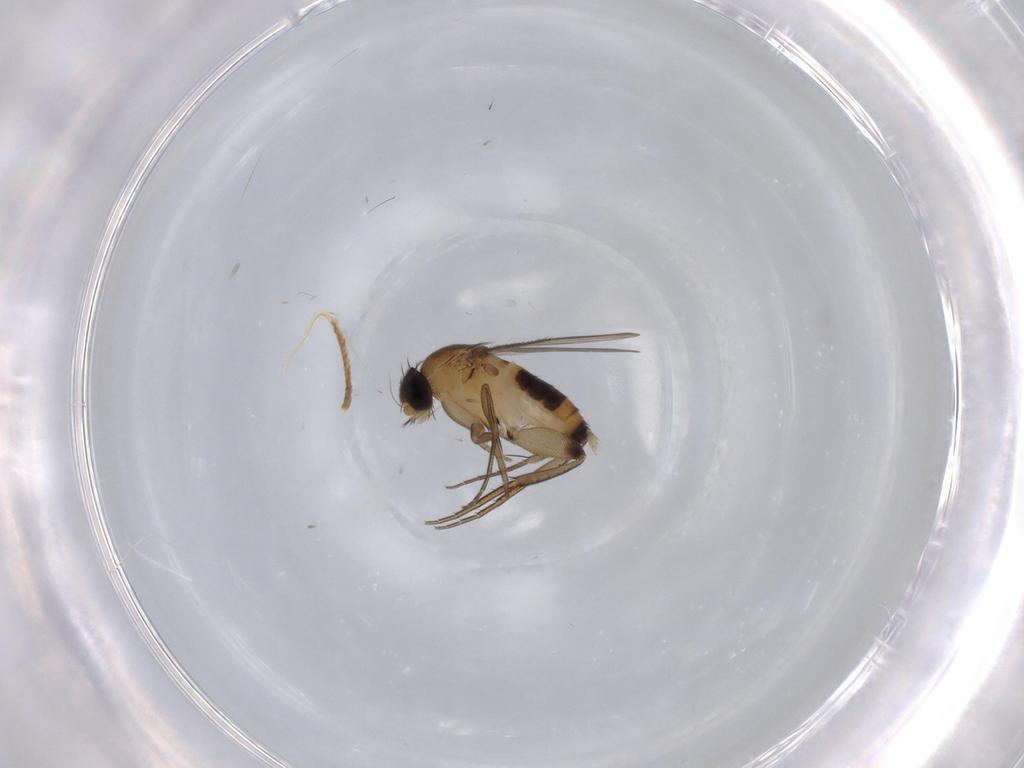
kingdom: Animalia
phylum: Arthropoda
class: Insecta
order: Diptera
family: Phoridae
